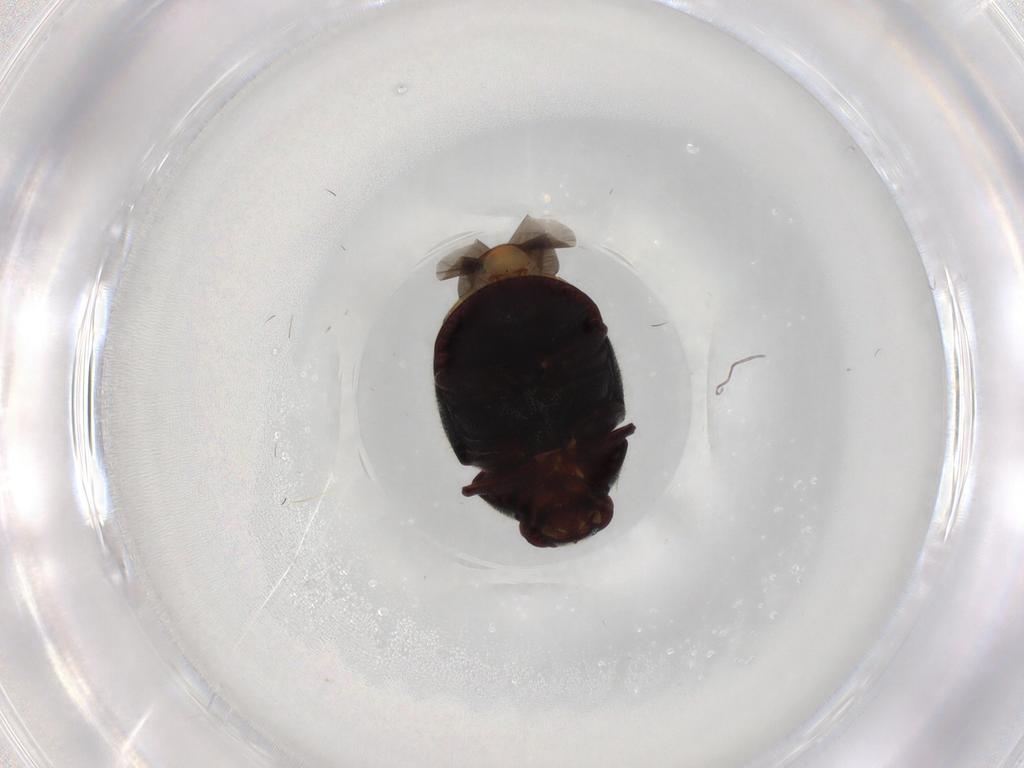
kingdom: Animalia
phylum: Arthropoda
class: Insecta
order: Coleoptera
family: Ptinidae
